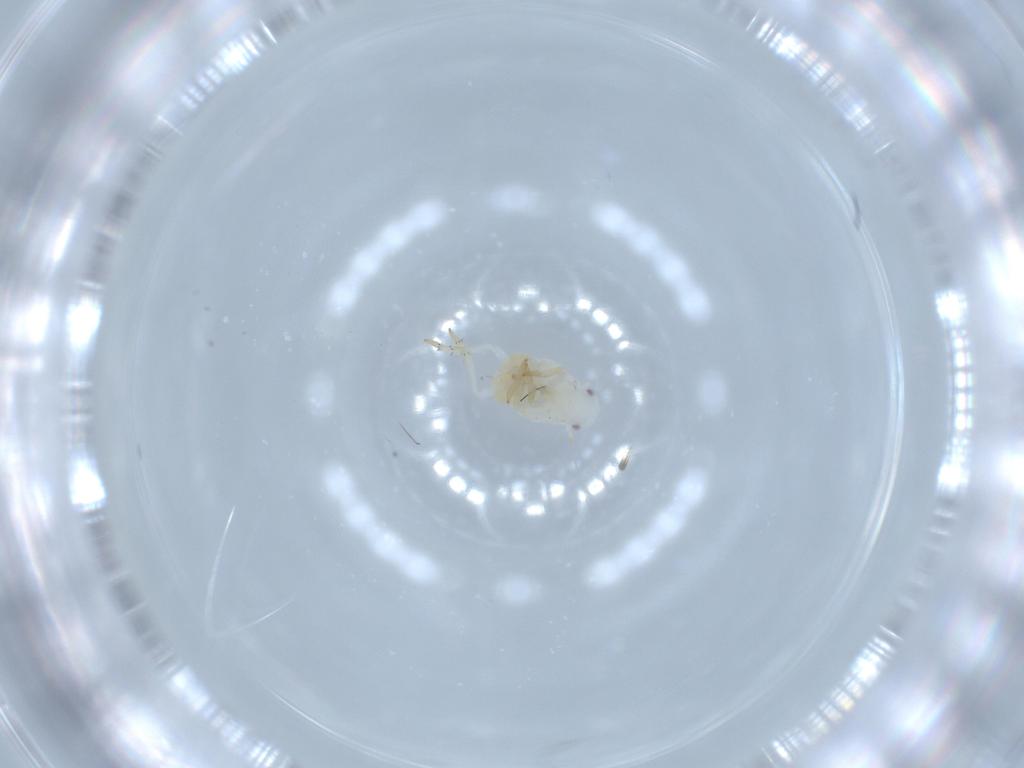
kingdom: Animalia
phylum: Arthropoda
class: Insecta
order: Hemiptera
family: Flatidae
